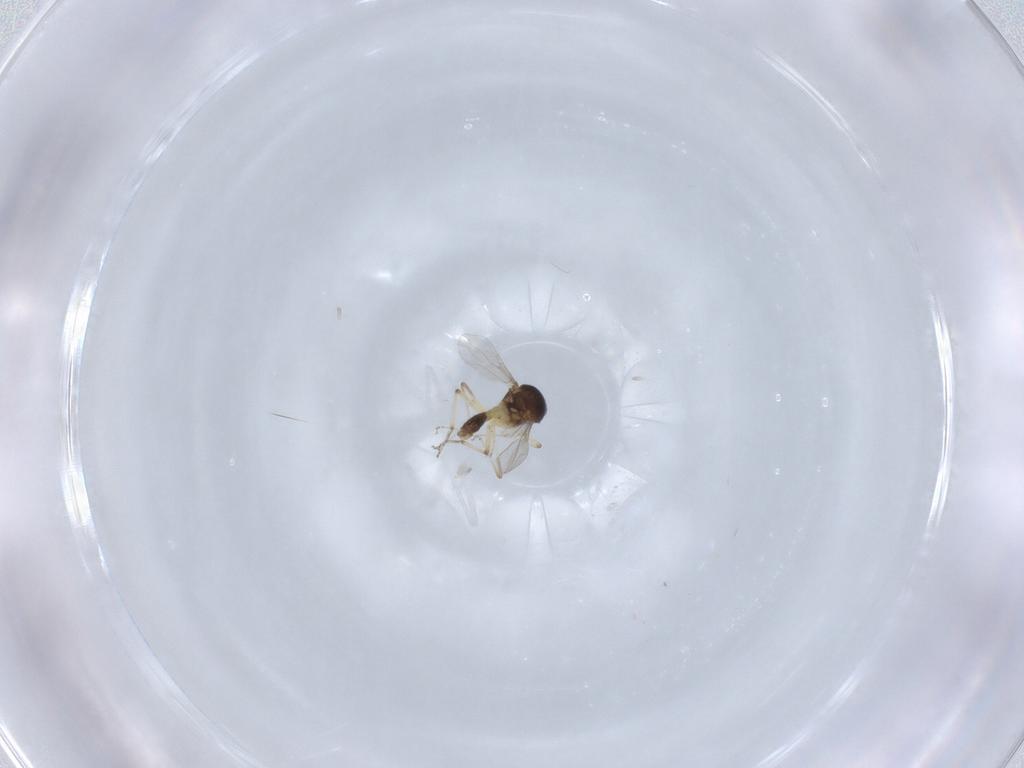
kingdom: Animalia
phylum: Arthropoda
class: Insecta
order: Diptera
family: Ceratopogonidae
